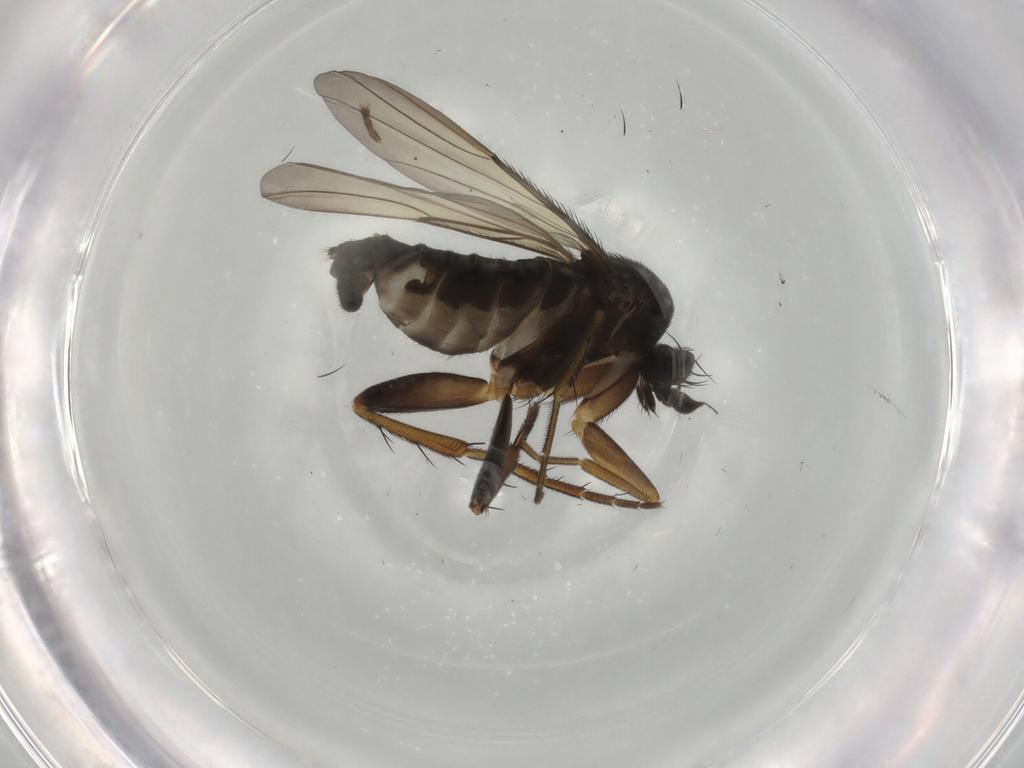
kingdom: Animalia
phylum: Arthropoda
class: Insecta
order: Diptera
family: Phoridae
